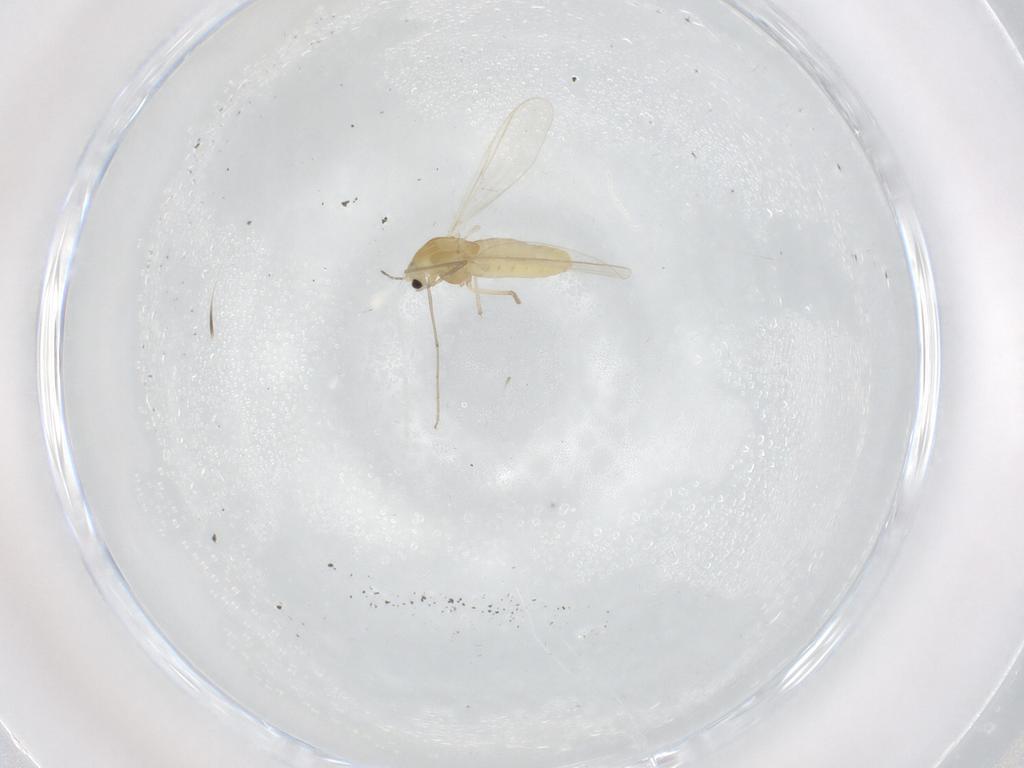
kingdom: Animalia
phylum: Arthropoda
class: Insecta
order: Diptera
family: Chironomidae
